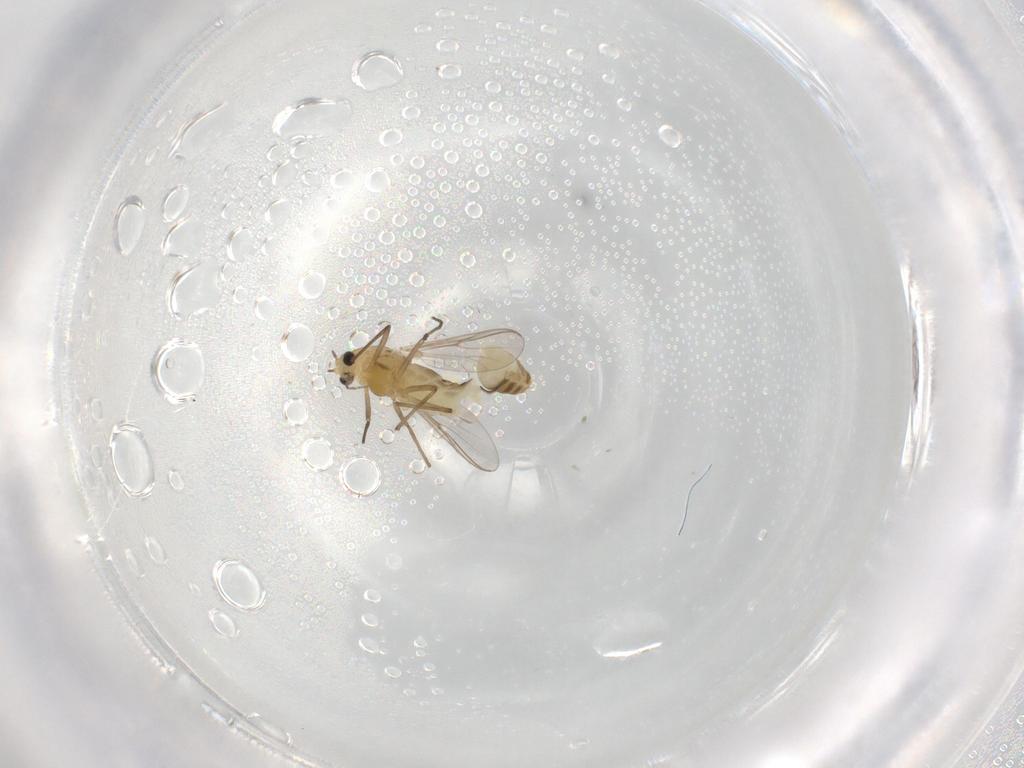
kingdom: Animalia
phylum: Arthropoda
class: Insecta
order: Diptera
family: Chironomidae
